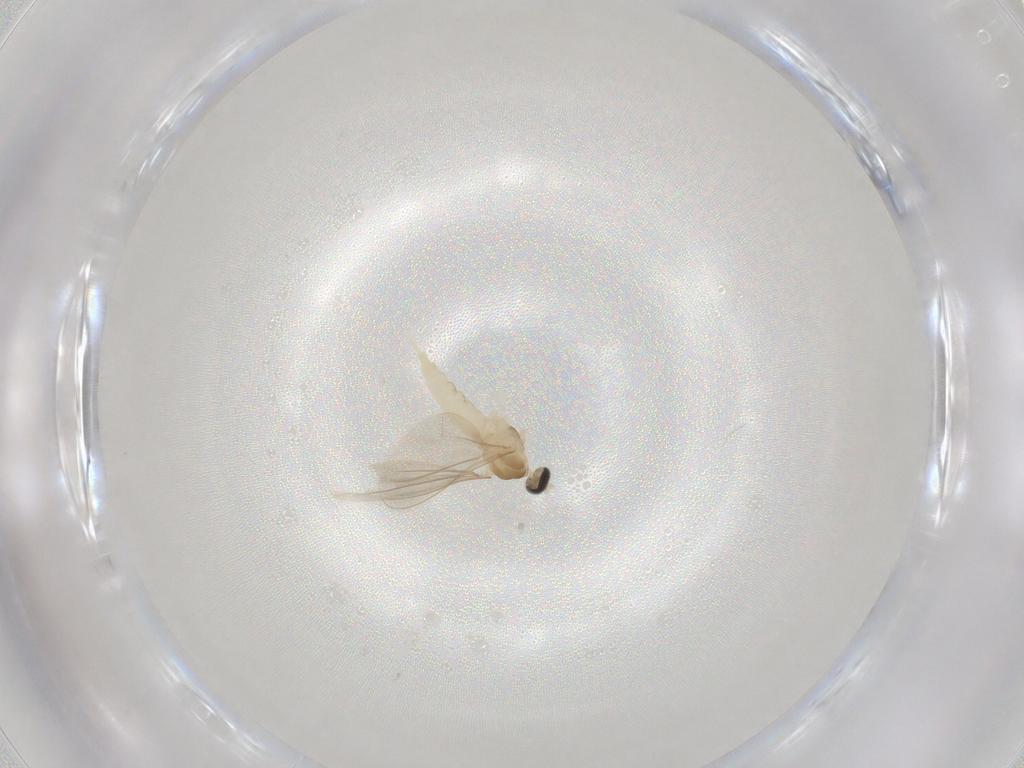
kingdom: Animalia
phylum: Arthropoda
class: Insecta
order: Diptera
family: Cecidomyiidae
